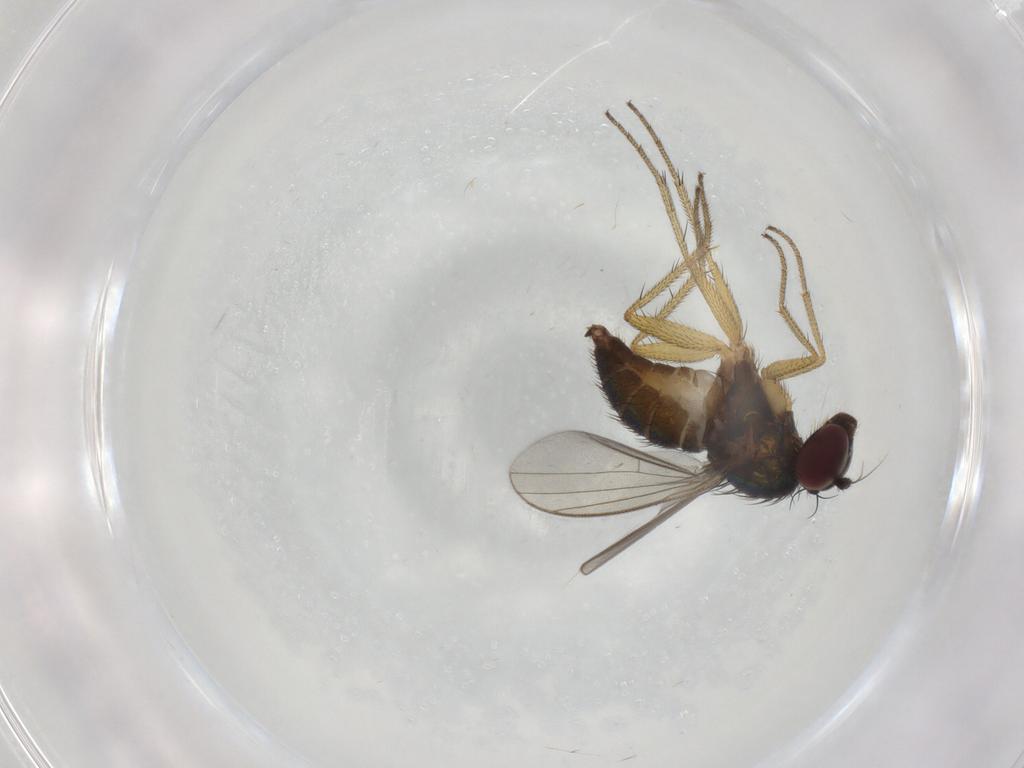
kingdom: Animalia
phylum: Arthropoda
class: Insecta
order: Diptera
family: Dolichopodidae
